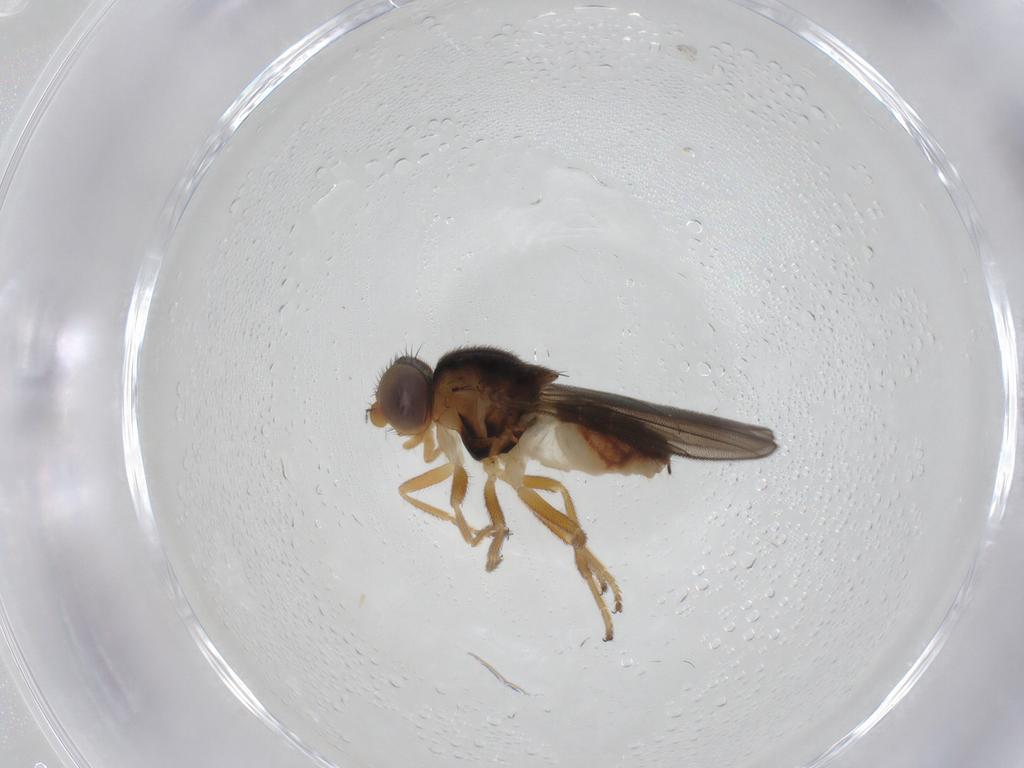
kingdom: Animalia
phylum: Arthropoda
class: Insecta
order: Diptera
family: Chloropidae
